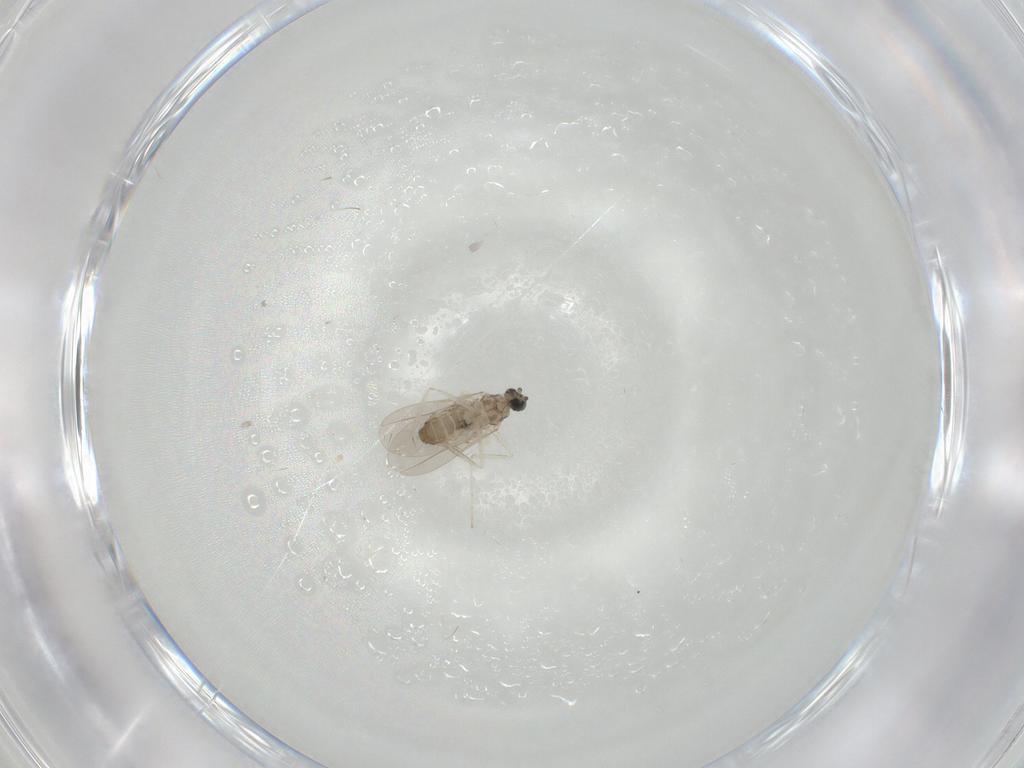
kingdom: Animalia
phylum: Arthropoda
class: Insecta
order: Diptera
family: Cecidomyiidae
